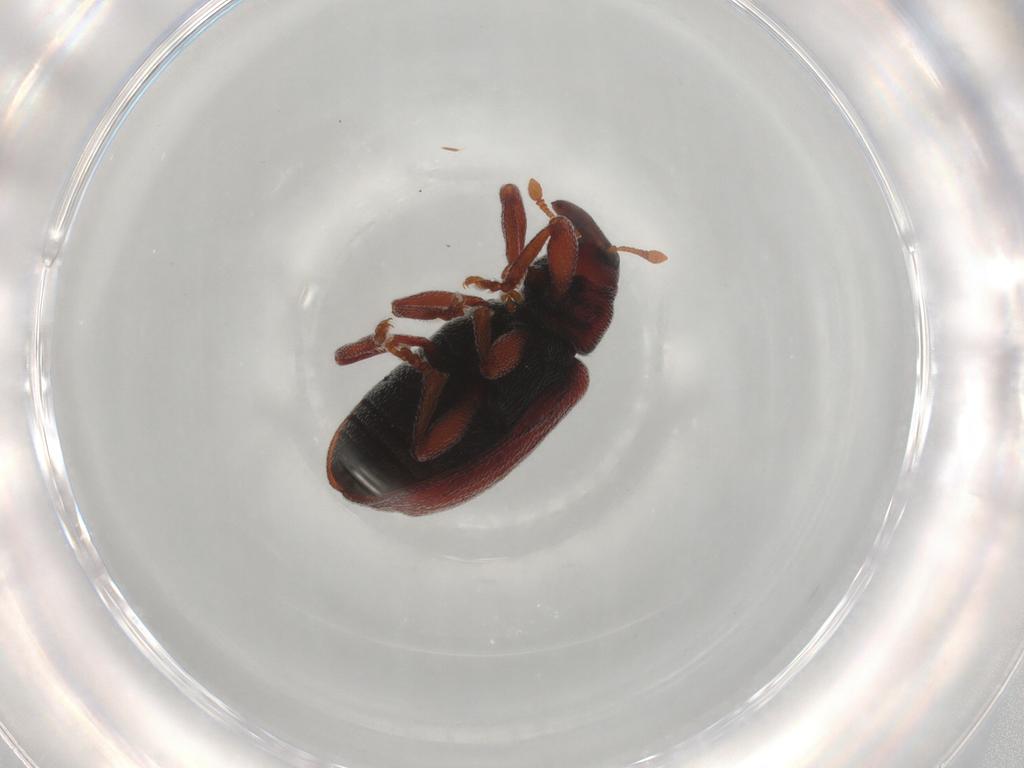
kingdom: Animalia
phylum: Arthropoda
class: Insecta
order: Coleoptera
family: Curculionidae
